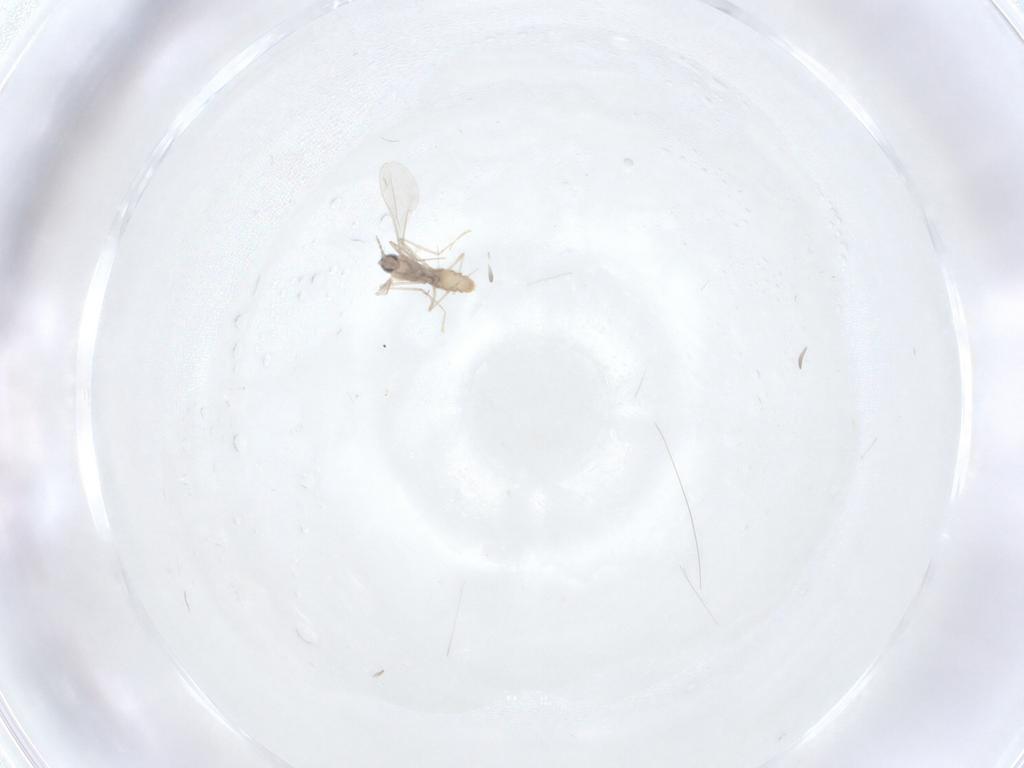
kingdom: Animalia
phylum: Arthropoda
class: Insecta
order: Diptera
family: Cecidomyiidae
